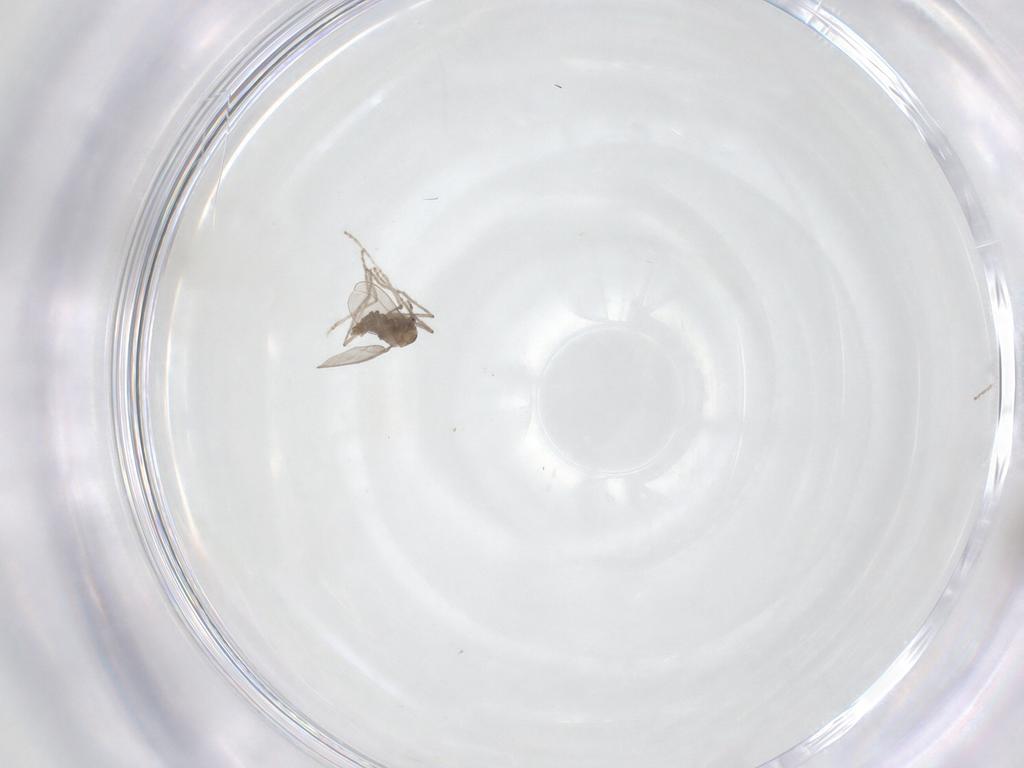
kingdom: Animalia
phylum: Arthropoda
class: Insecta
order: Diptera
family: Cecidomyiidae
